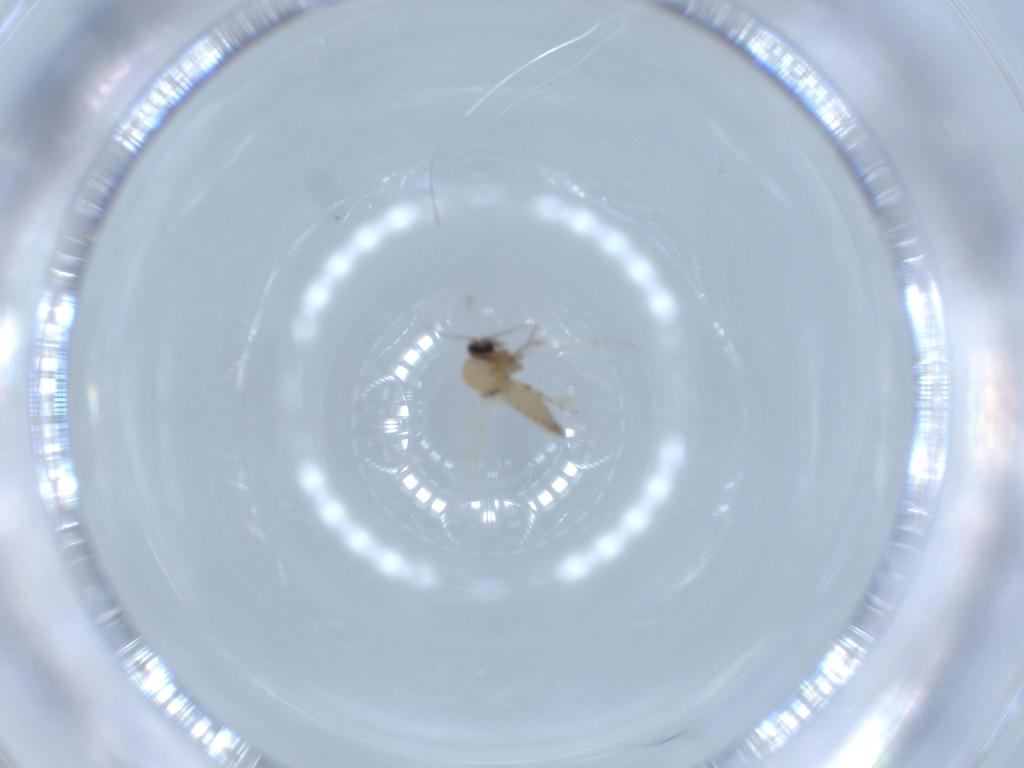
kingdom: Animalia
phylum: Arthropoda
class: Insecta
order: Diptera
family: Ceratopogonidae
